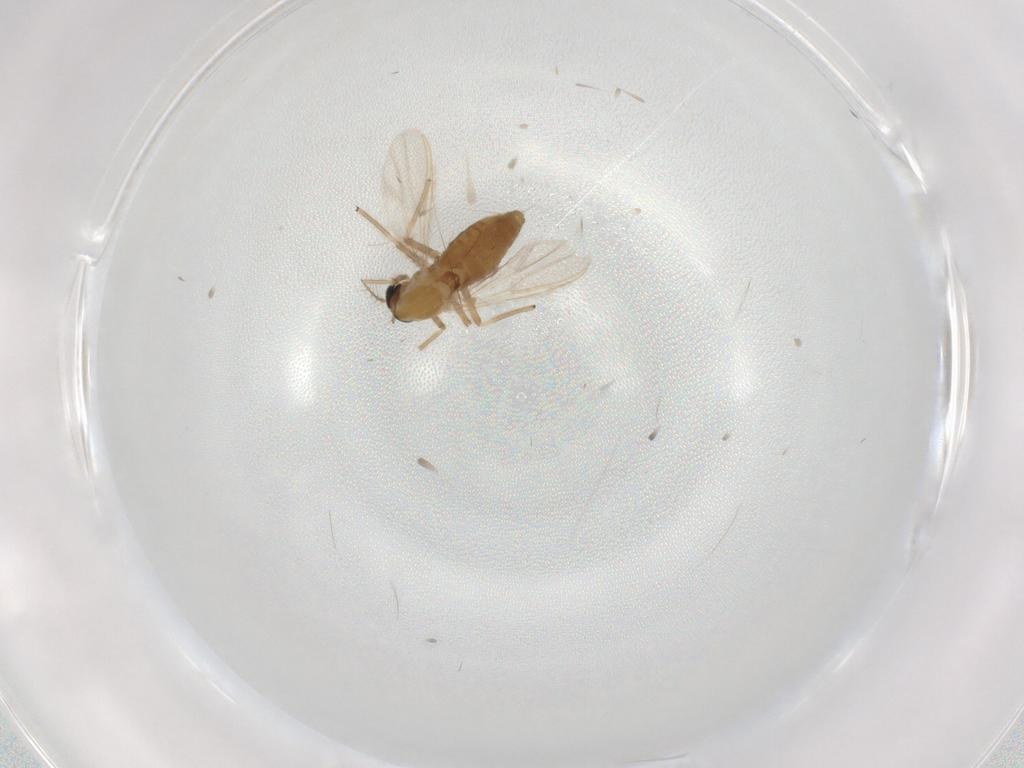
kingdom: Animalia
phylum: Arthropoda
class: Insecta
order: Diptera
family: Chironomidae
